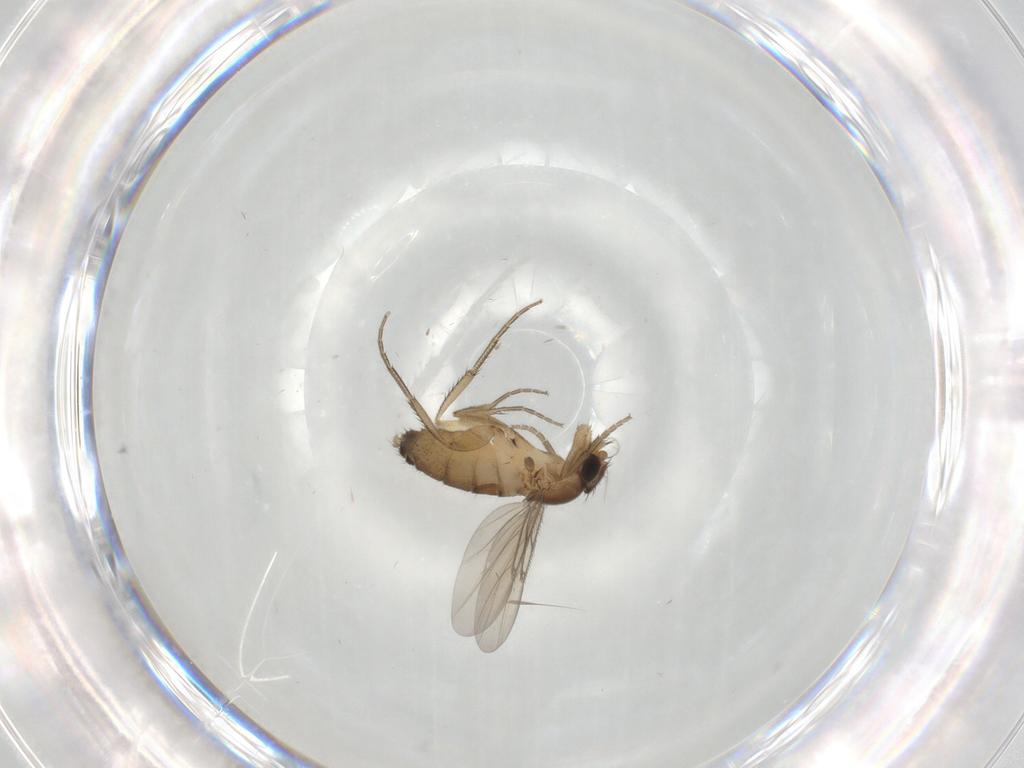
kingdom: Animalia
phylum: Arthropoda
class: Insecta
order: Diptera
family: Phoridae
